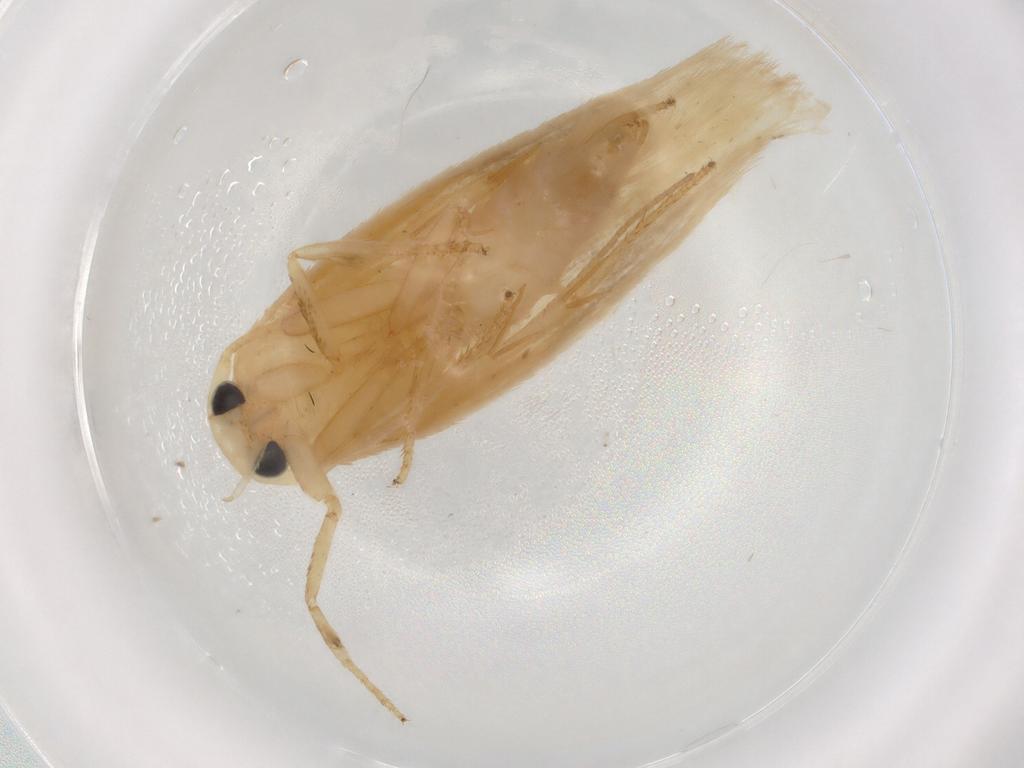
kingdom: Animalia
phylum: Arthropoda
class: Insecta
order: Lepidoptera
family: Geometridae
